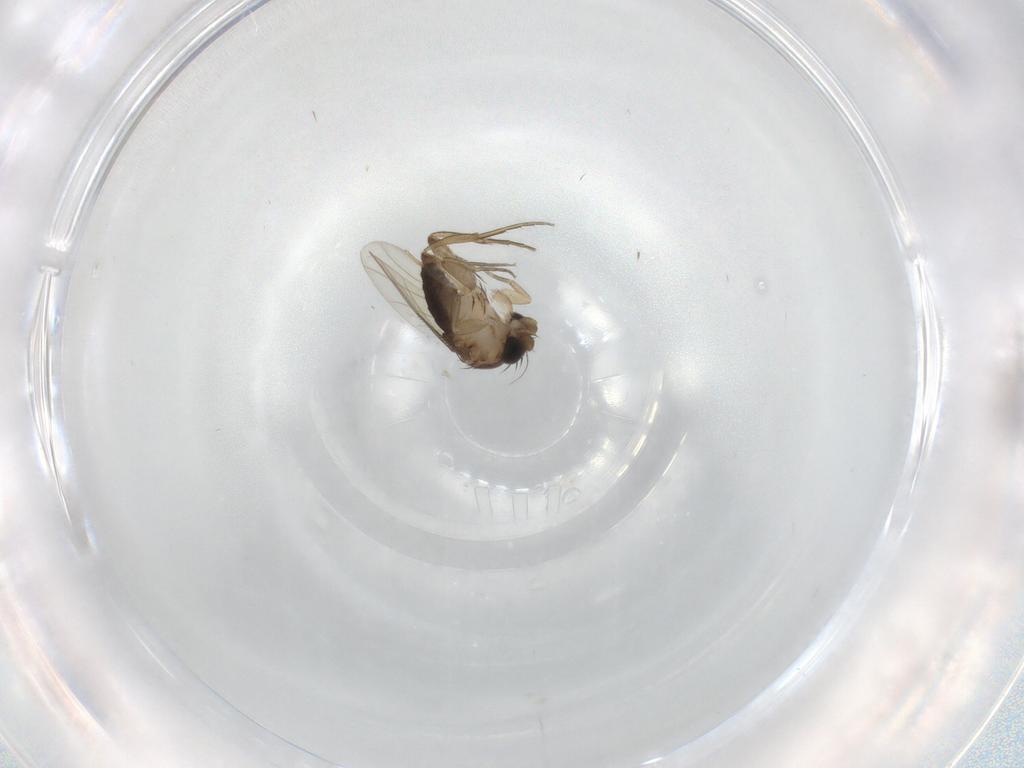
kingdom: Animalia
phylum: Arthropoda
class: Insecta
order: Diptera
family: Phoridae
